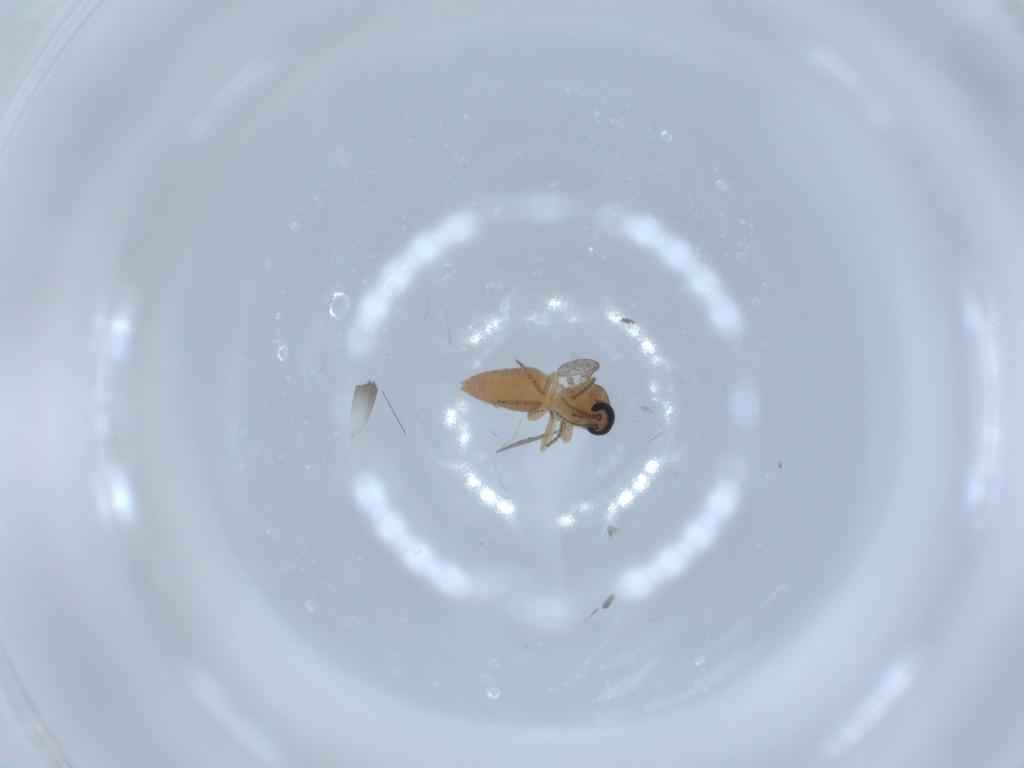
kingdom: Animalia
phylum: Arthropoda
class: Insecta
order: Diptera
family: Ceratopogonidae
